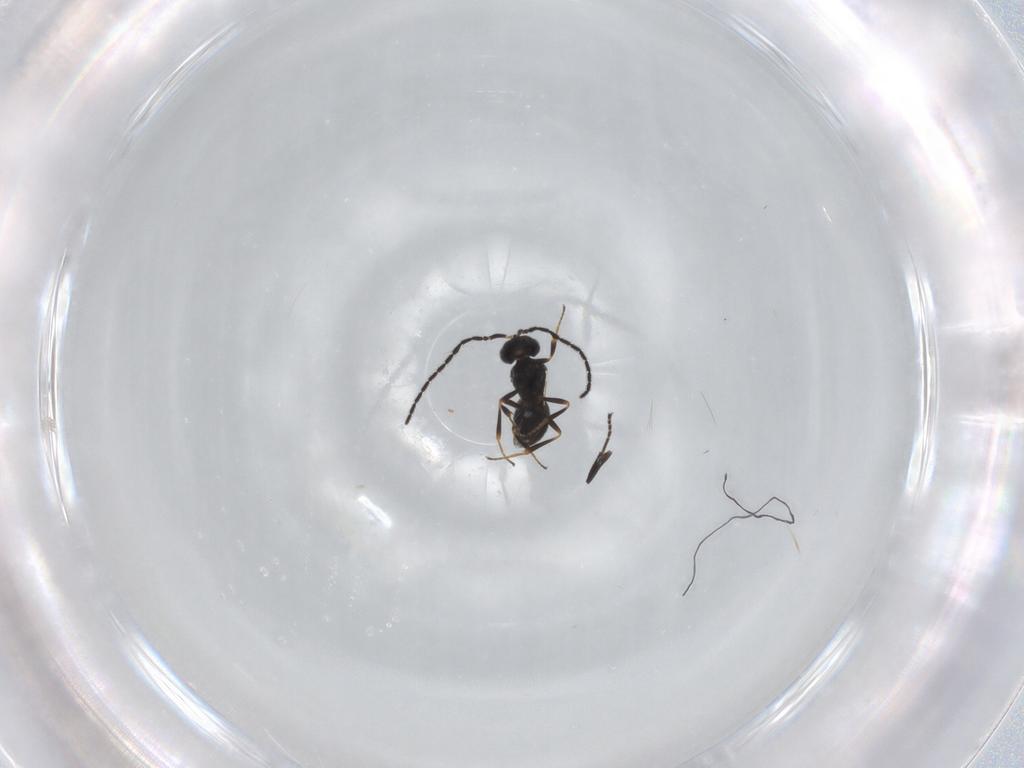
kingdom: Animalia
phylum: Arthropoda
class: Insecta
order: Hymenoptera
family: Scelionidae
